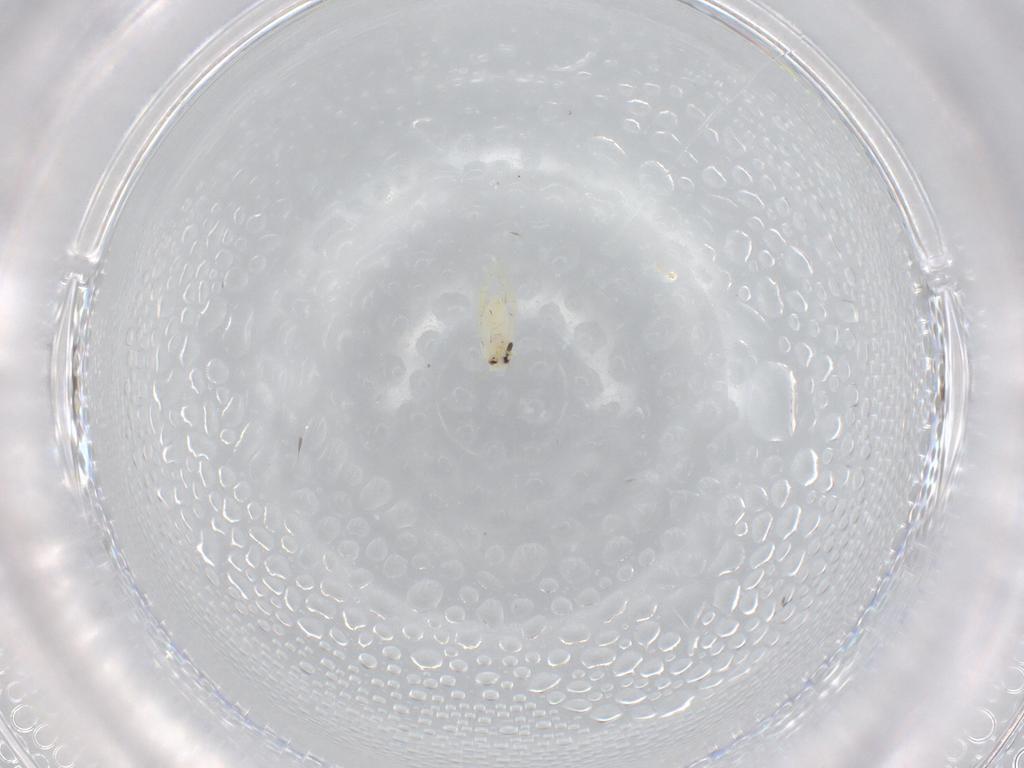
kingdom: Animalia
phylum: Arthropoda
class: Insecta
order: Hemiptera
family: Aleyrodidae
